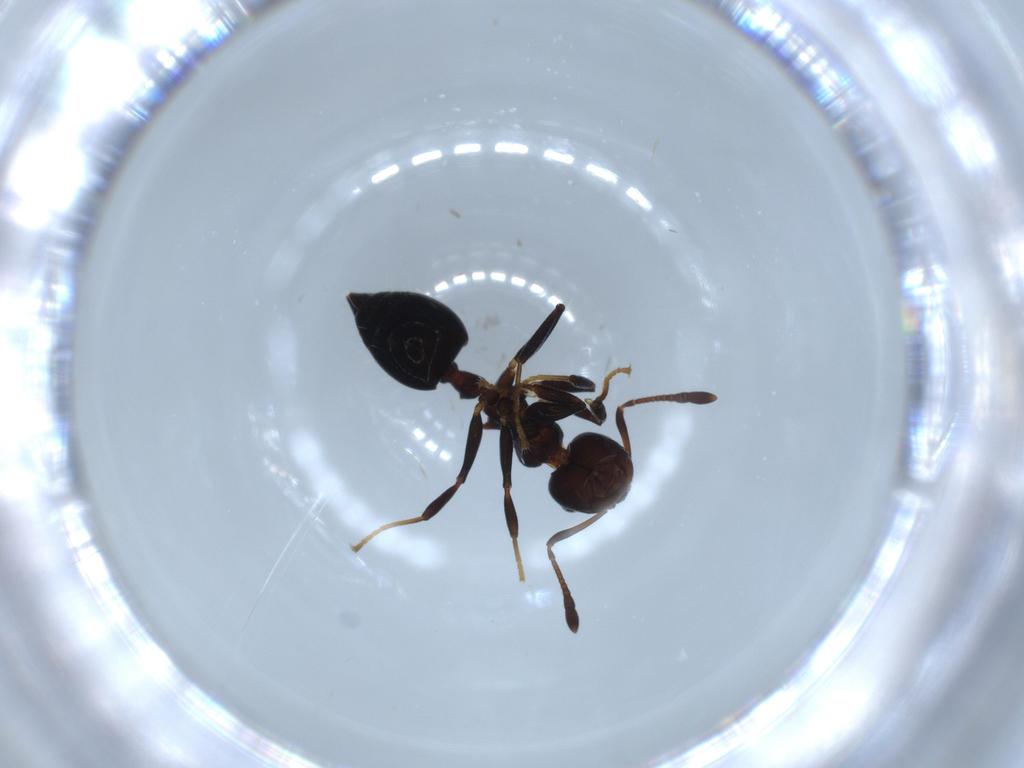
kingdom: Animalia
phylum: Arthropoda
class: Insecta
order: Hymenoptera
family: Formicidae
